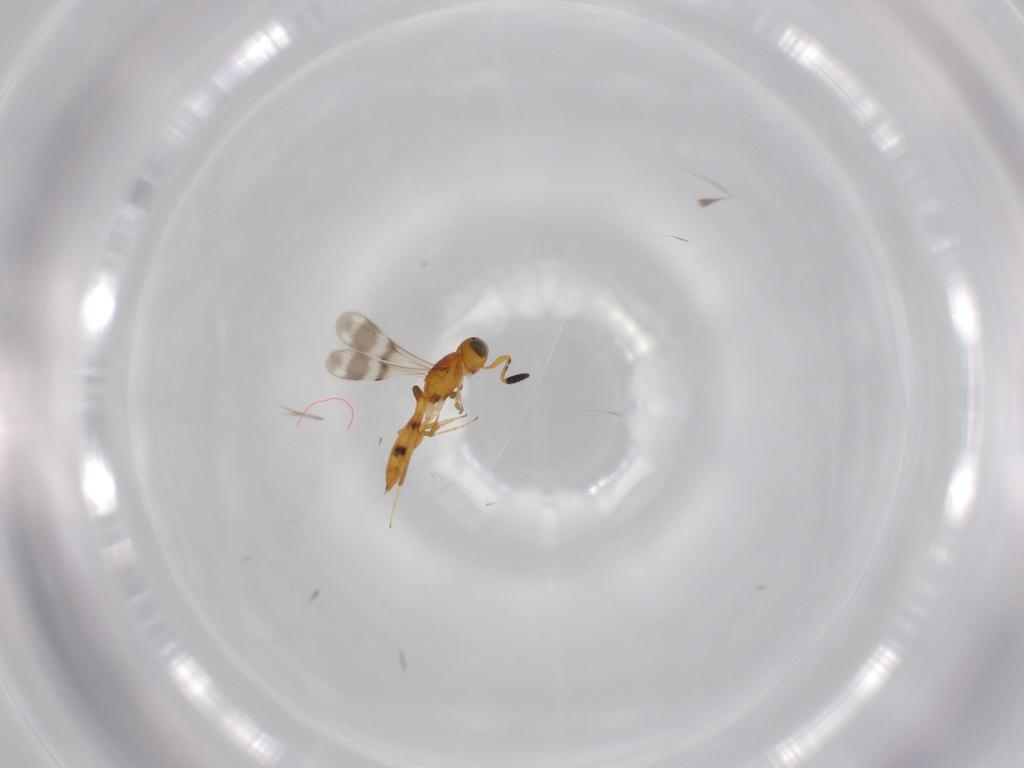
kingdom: Animalia
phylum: Arthropoda
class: Insecta
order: Hymenoptera
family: Scelionidae
